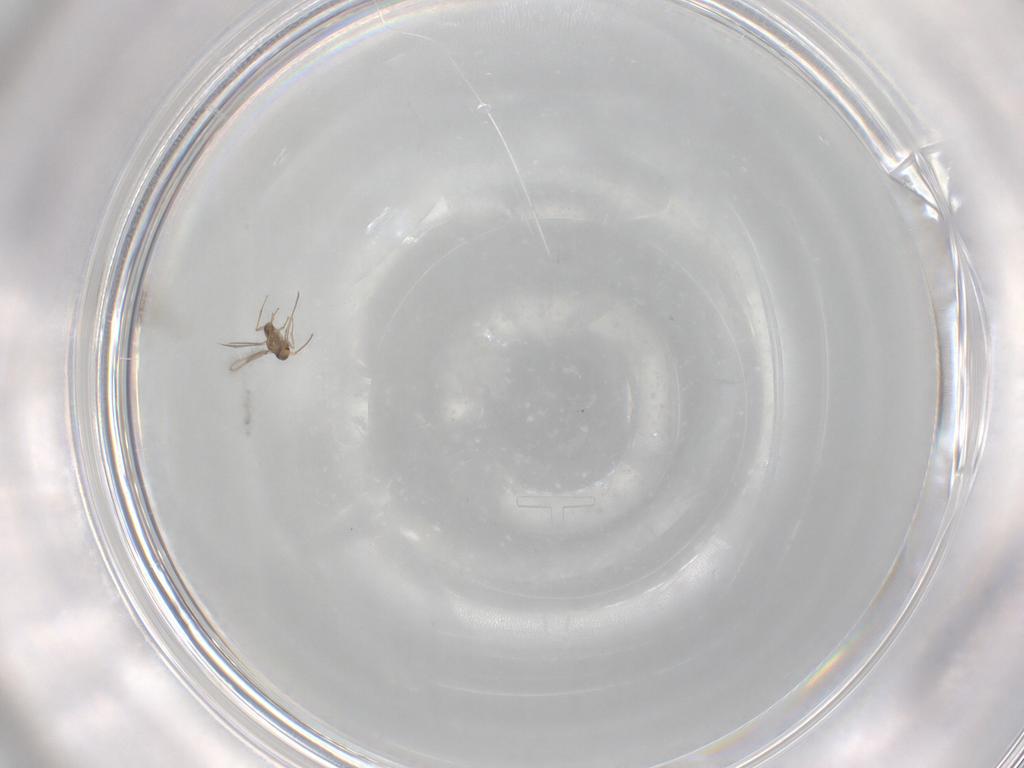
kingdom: Animalia
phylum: Arthropoda
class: Insecta
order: Hymenoptera
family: Mymaridae
